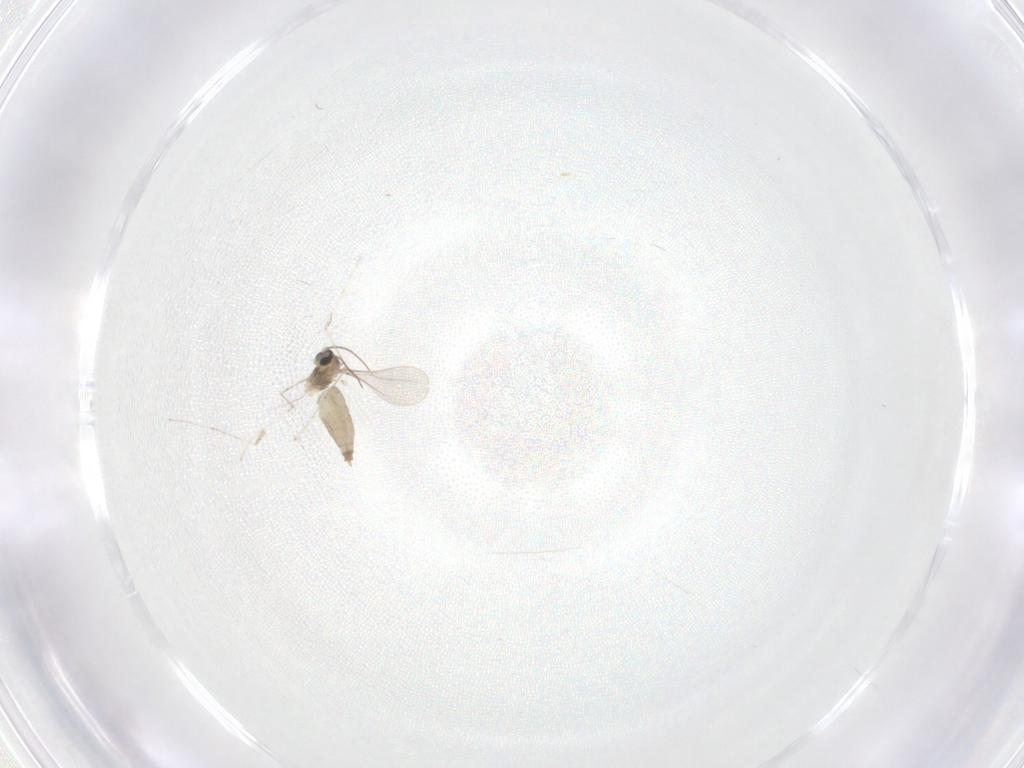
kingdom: Animalia
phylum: Arthropoda
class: Insecta
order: Diptera
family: Cecidomyiidae
